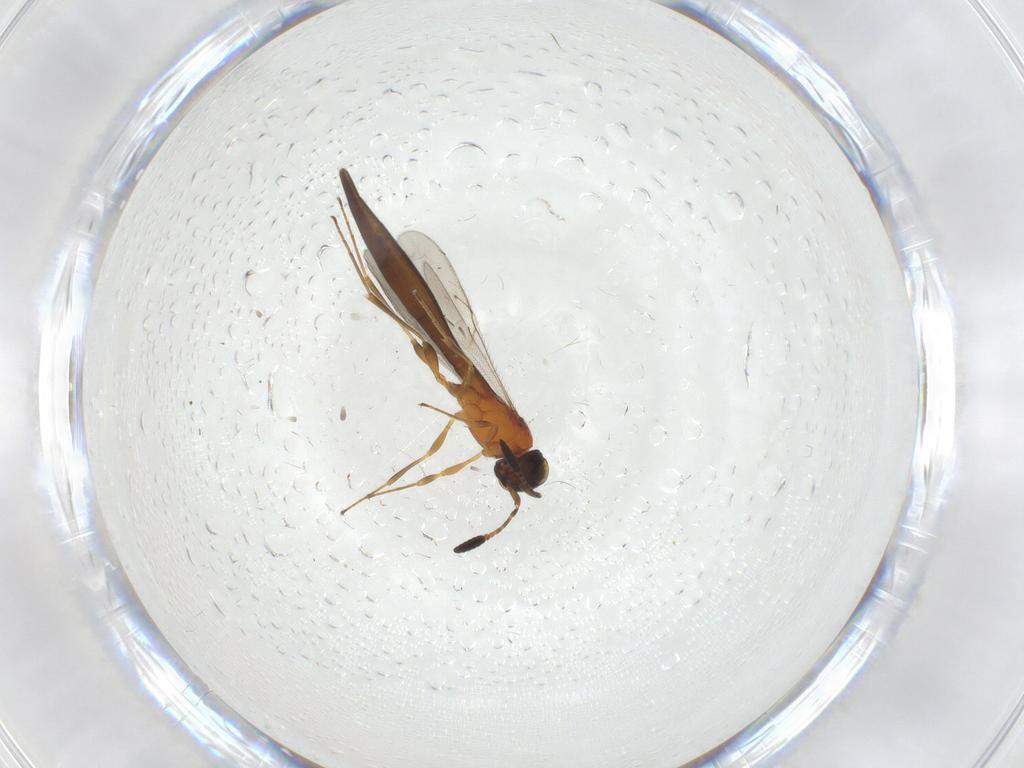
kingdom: Animalia
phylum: Arthropoda
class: Insecta
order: Hymenoptera
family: Scelionidae
